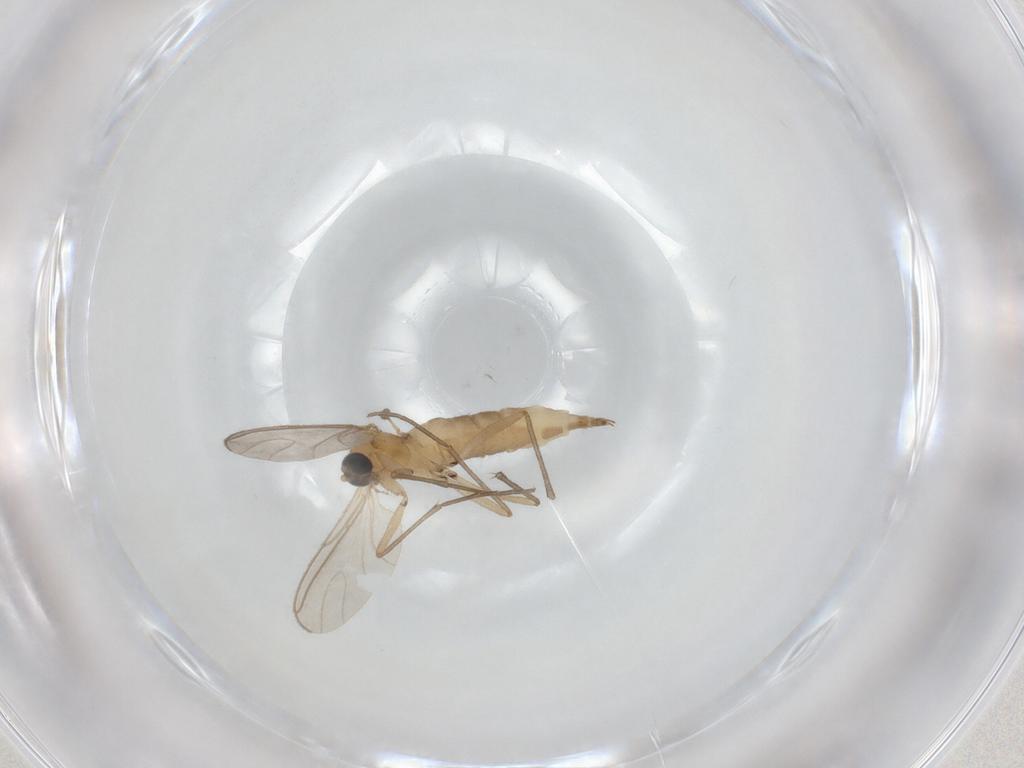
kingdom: Animalia
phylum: Arthropoda
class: Insecta
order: Diptera
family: Sciaridae
